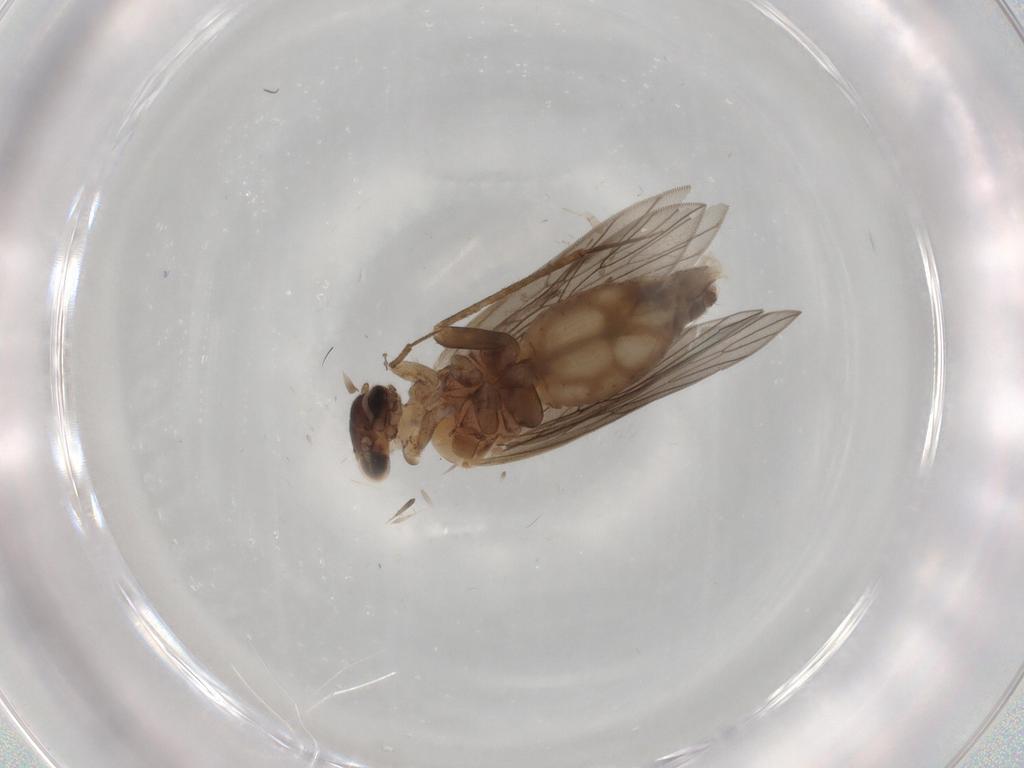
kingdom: Animalia
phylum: Arthropoda
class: Insecta
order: Psocodea
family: Lepidopsocidae
